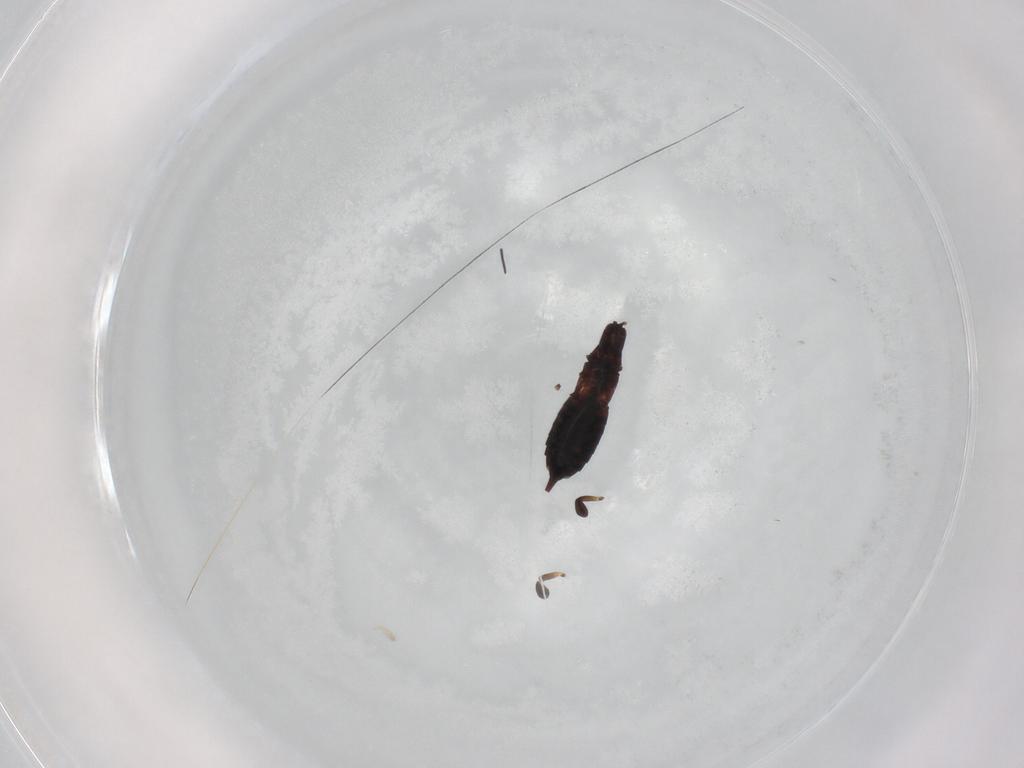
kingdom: Animalia
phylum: Arthropoda
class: Insecta
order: Thysanoptera
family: Phlaeothripidae
